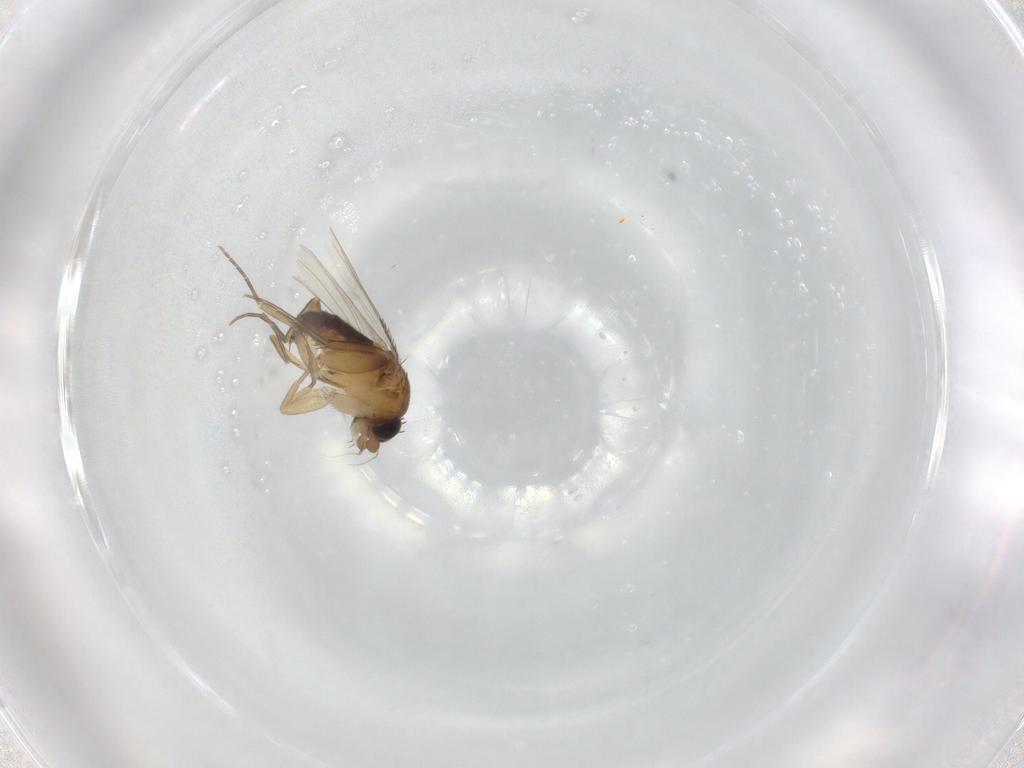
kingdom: Animalia
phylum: Arthropoda
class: Insecta
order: Diptera
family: Phoridae
